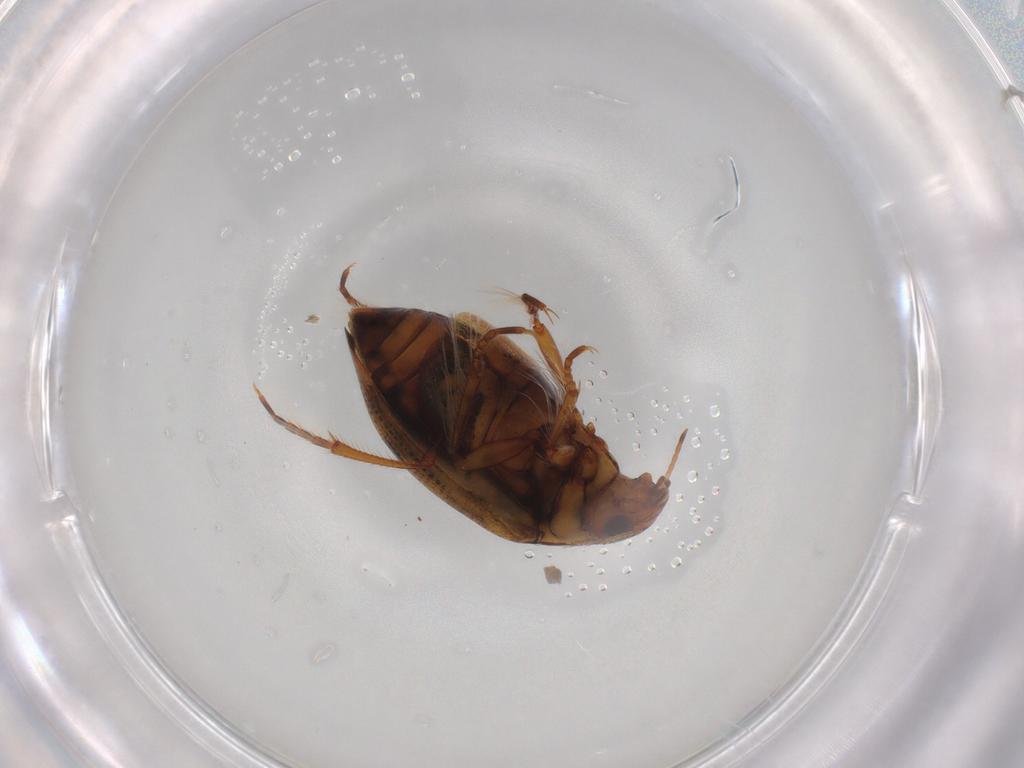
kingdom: Animalia
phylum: Arthropoda
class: Insecta
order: Coleoptera
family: Haliplidae
